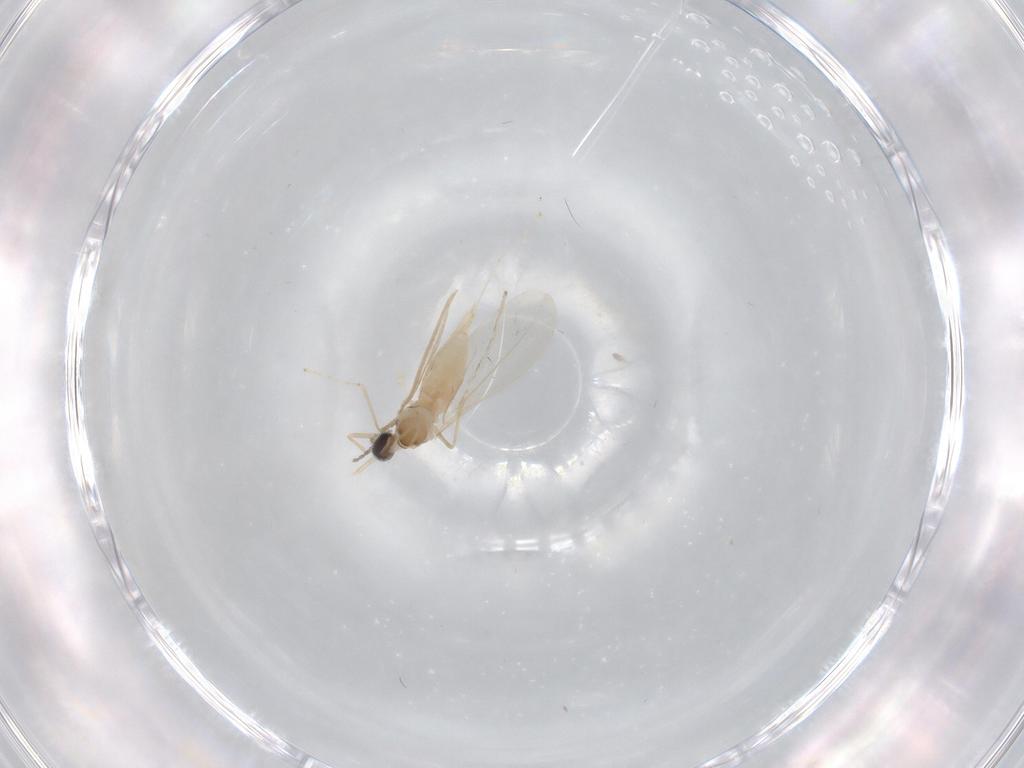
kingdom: Animalia
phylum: Arthropoda
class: Insecta
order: Diptera
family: Cecidomyiidae
